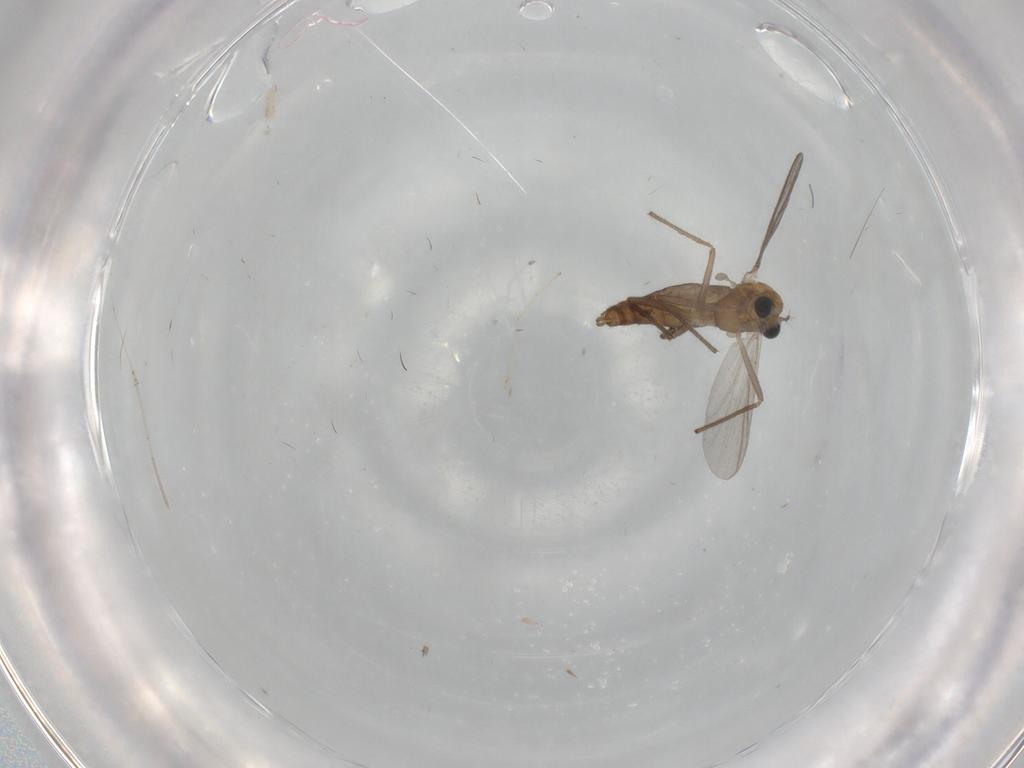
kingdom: Animalia
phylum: Arthropoda
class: Insecta
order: Diptera
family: Chironomidae
